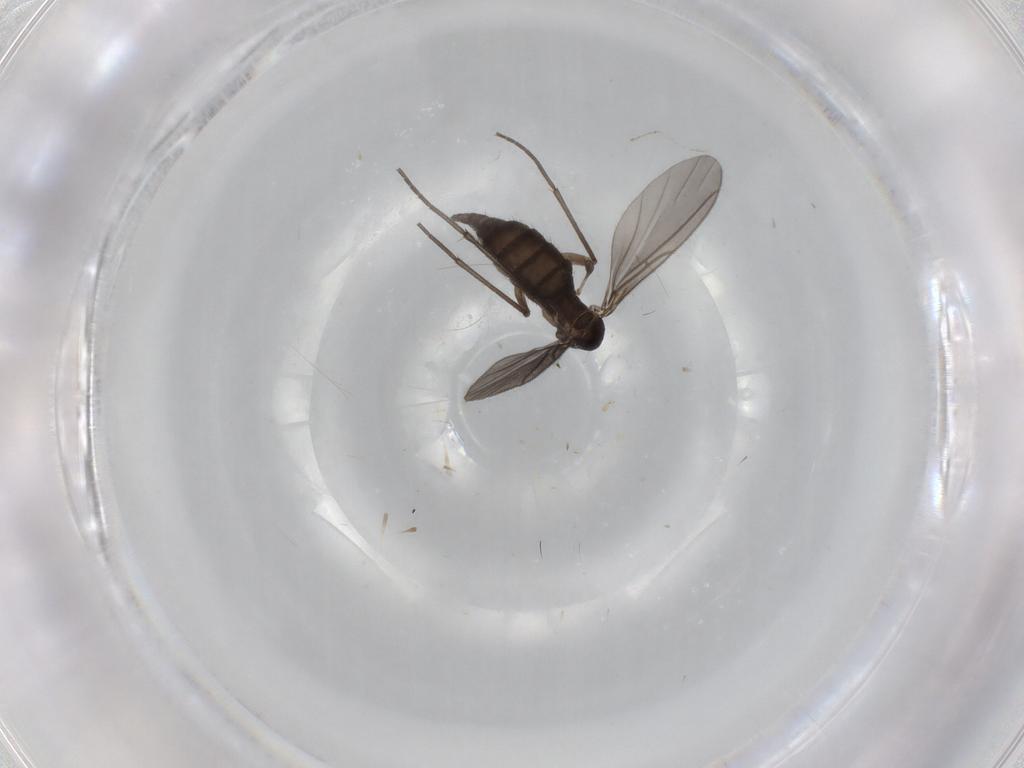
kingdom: Animalia
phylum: Arthropoda
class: Insecta
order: Diptera
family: Sciaridae
